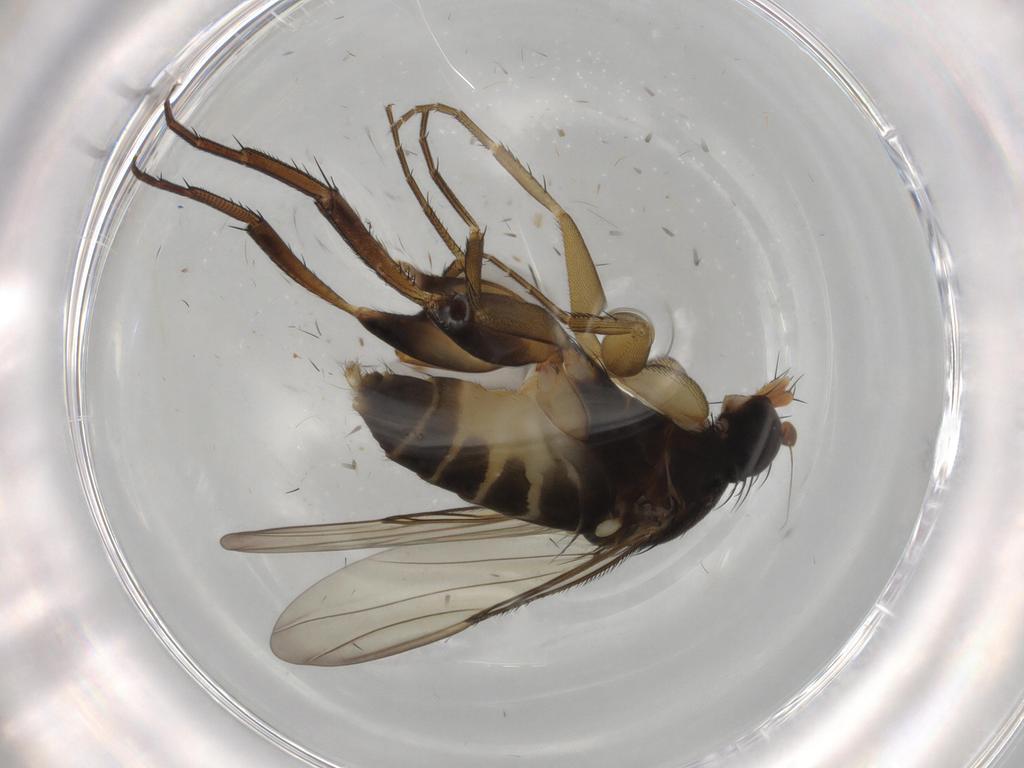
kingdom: Animalia
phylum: Arthropoda
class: Insecta
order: Diptera
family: Phoridae
